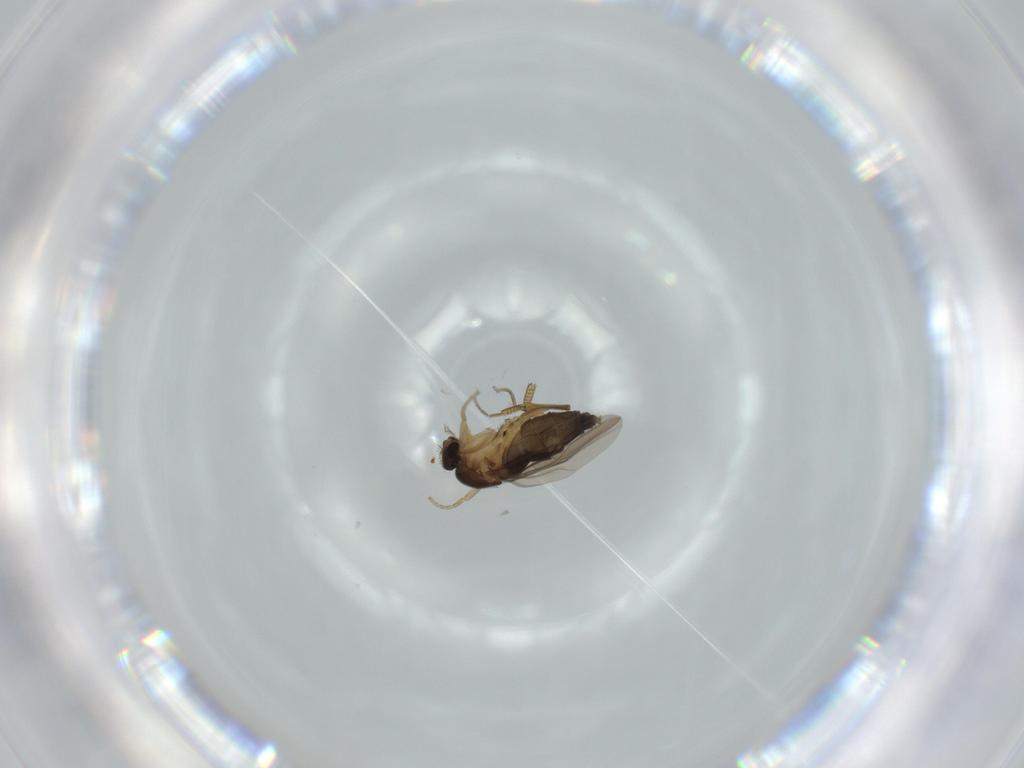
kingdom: Animalia
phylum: Arthropoda
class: Insecta
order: Diptera
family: Phoridae
